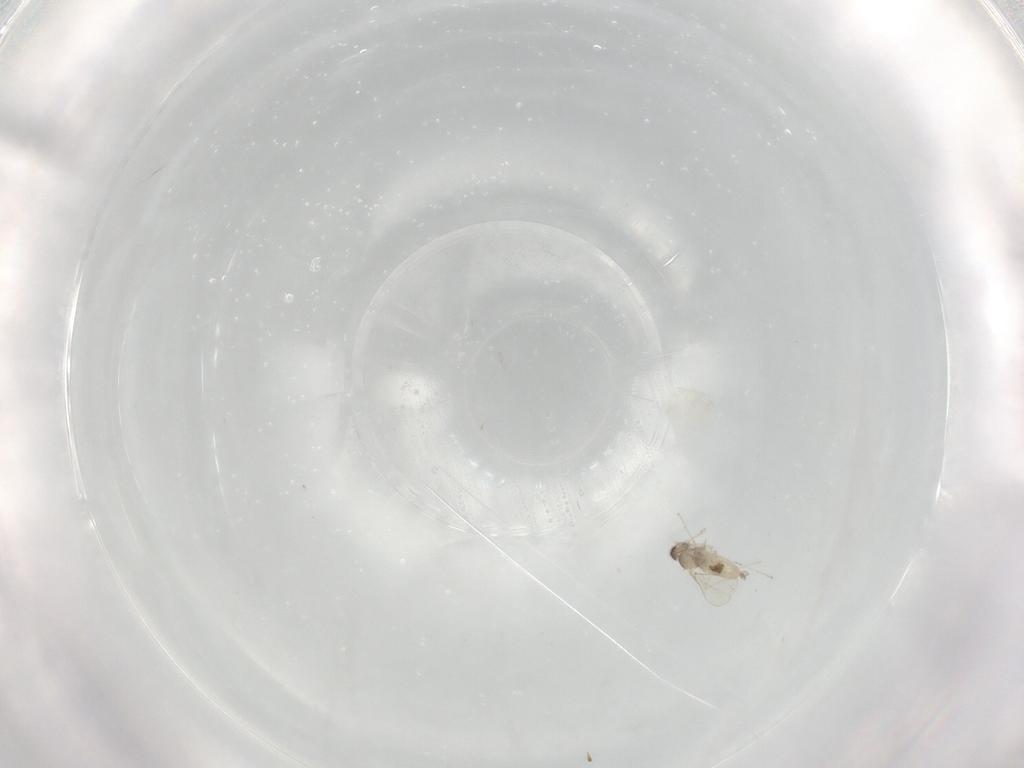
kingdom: Animalia
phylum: Arthropoda
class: Insecta
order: Diptera
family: Cecidomyiidae
